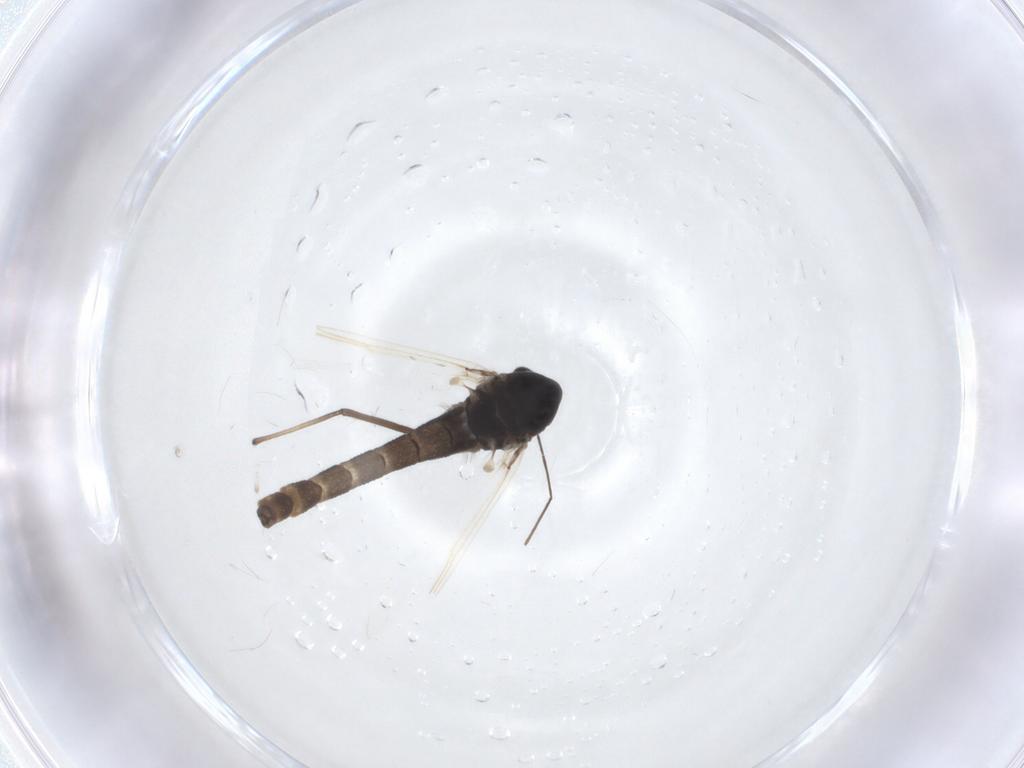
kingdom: Animalia
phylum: Arthropoda
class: Insecta
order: Diptera
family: Chironomidae
